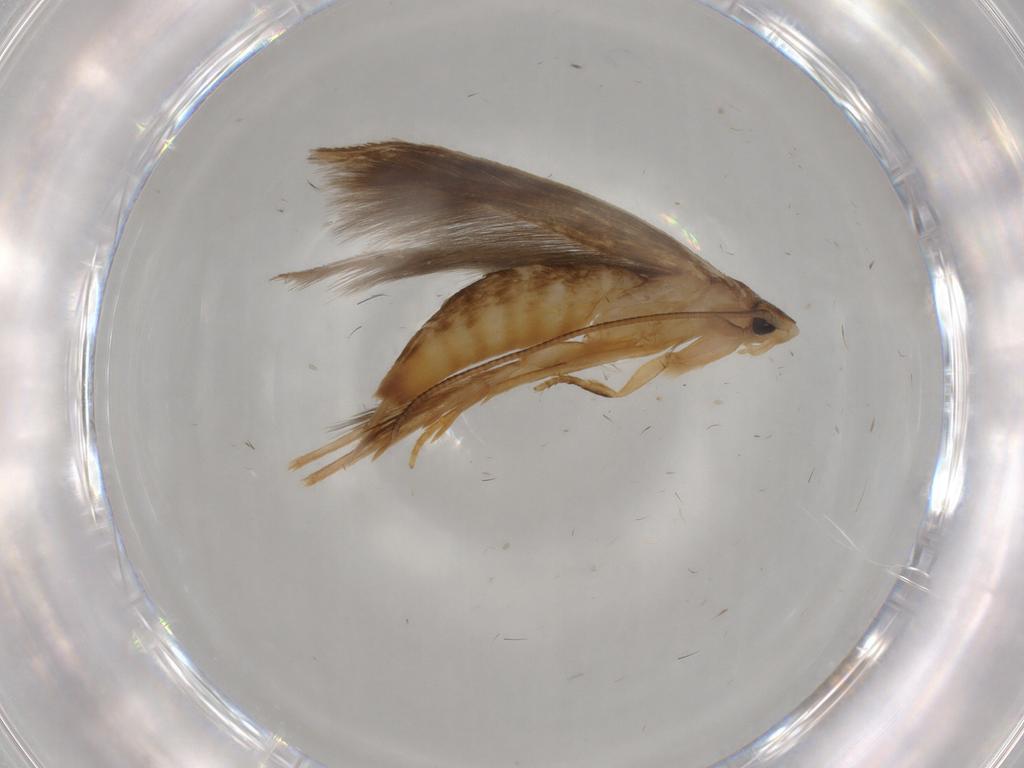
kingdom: Animalia
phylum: Arthropoda
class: Insecta
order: Lepidoptera
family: Tineidae
